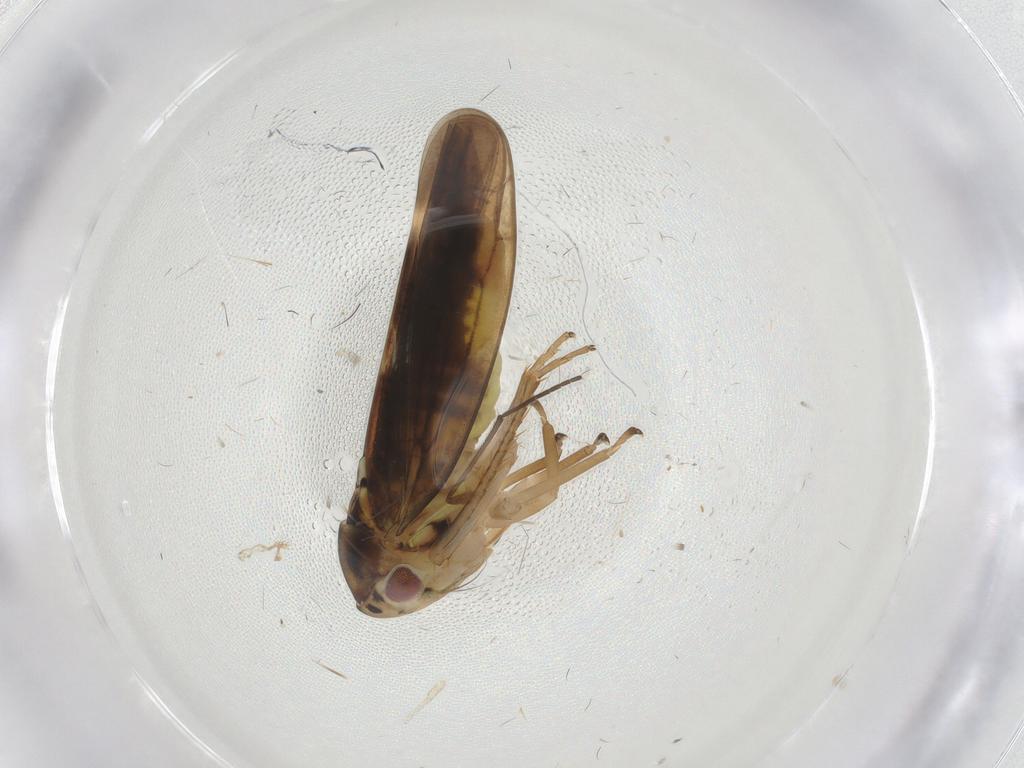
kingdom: Animalia
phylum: Arthropoda
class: Insecta
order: Hemiptera
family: Cicadellidae
